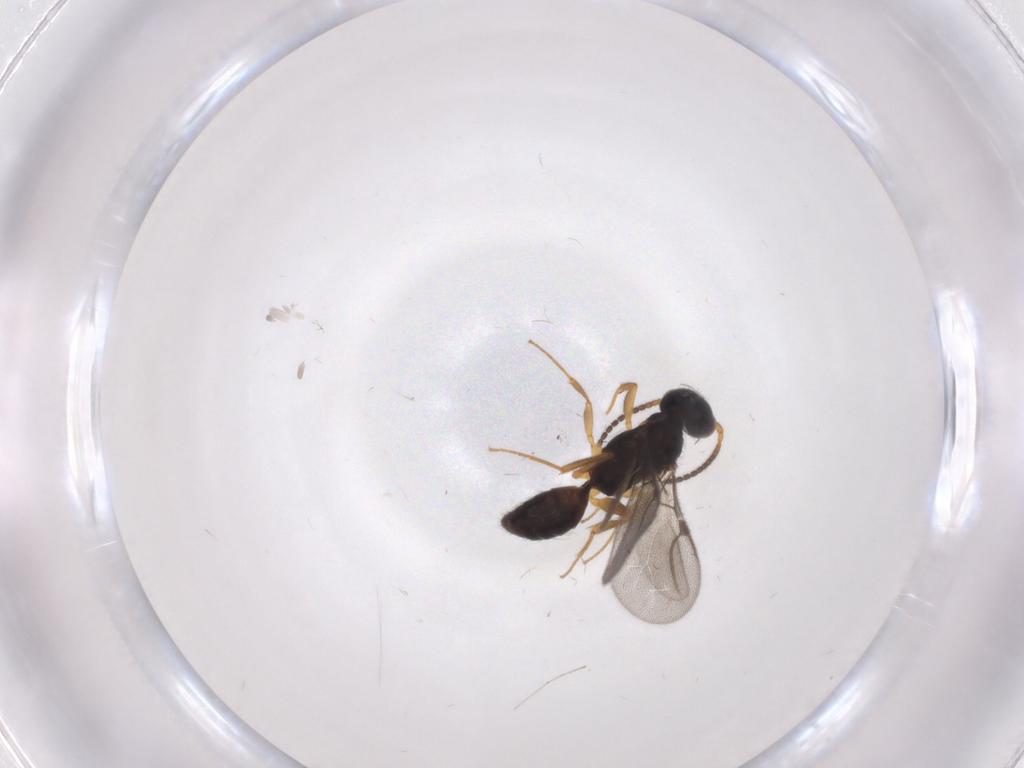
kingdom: Animalia
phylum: Arthropoda
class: Insecta
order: Hymenoptera
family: Bethylidae
